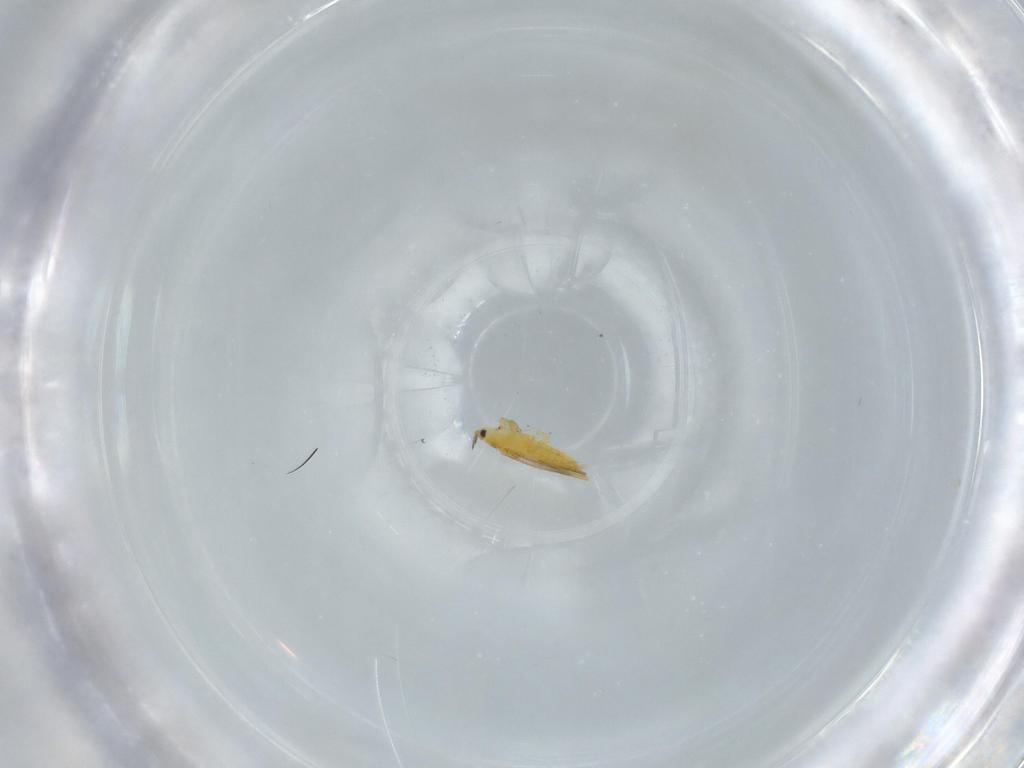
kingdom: Animalia
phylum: Arthropoda
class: Insecta
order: Thysanoptera
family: Thripidae
